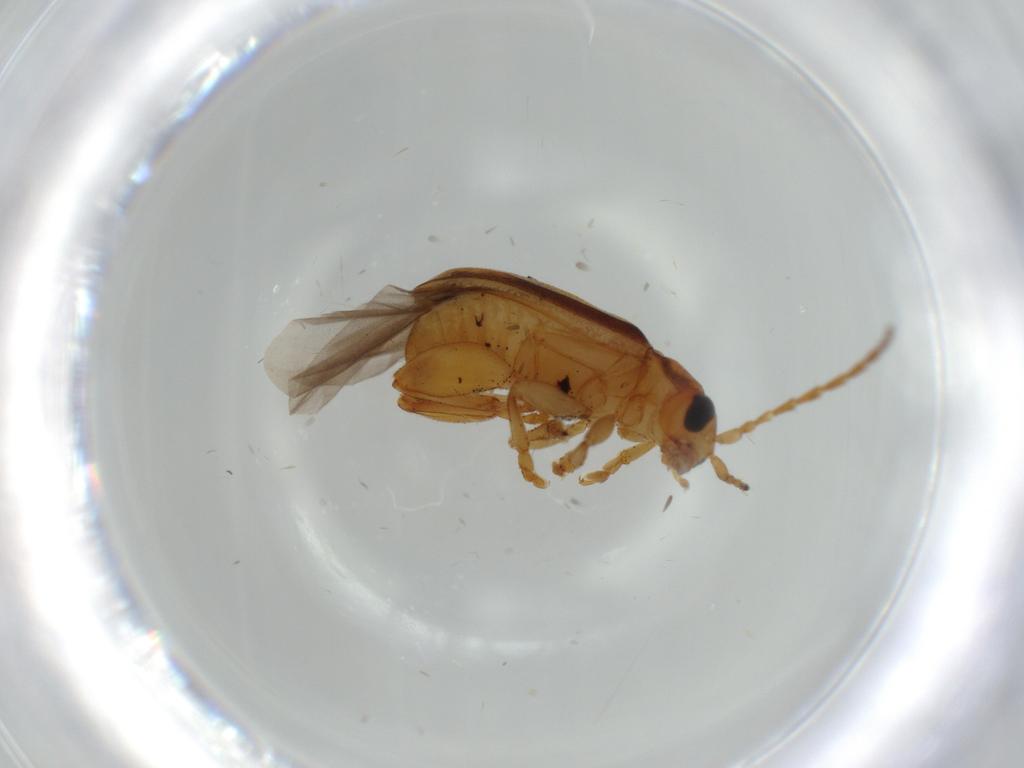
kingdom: Animalia
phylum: Arthropoda
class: Insecta
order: Coleoptera
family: Chrysomelidae
